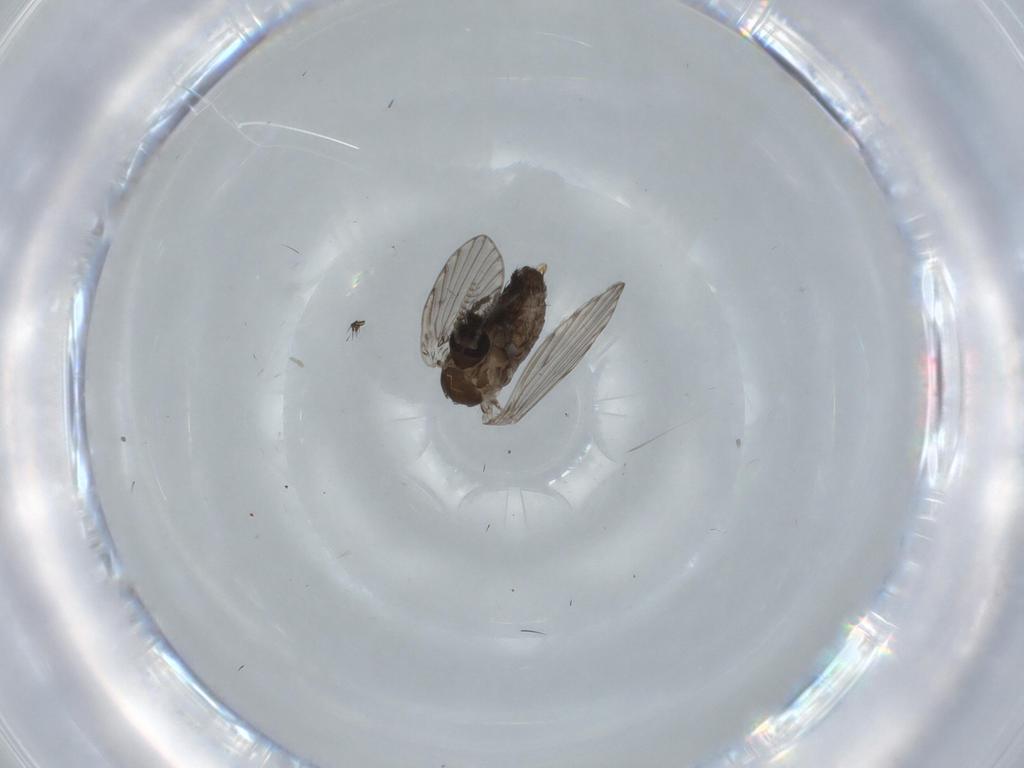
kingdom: Animalia
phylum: Arthropoda
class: Insecta
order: Diptera
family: Psychodidae
